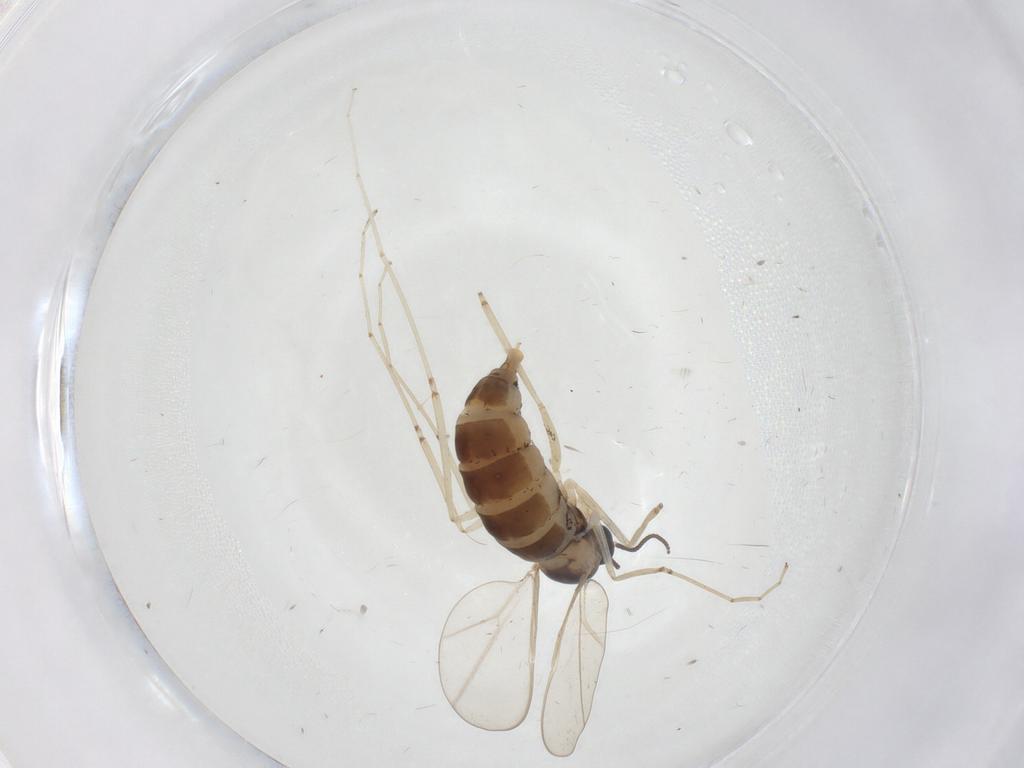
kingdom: Animalia
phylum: Arthropoda
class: Insecta
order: Diptera
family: Cecidomyiidae
